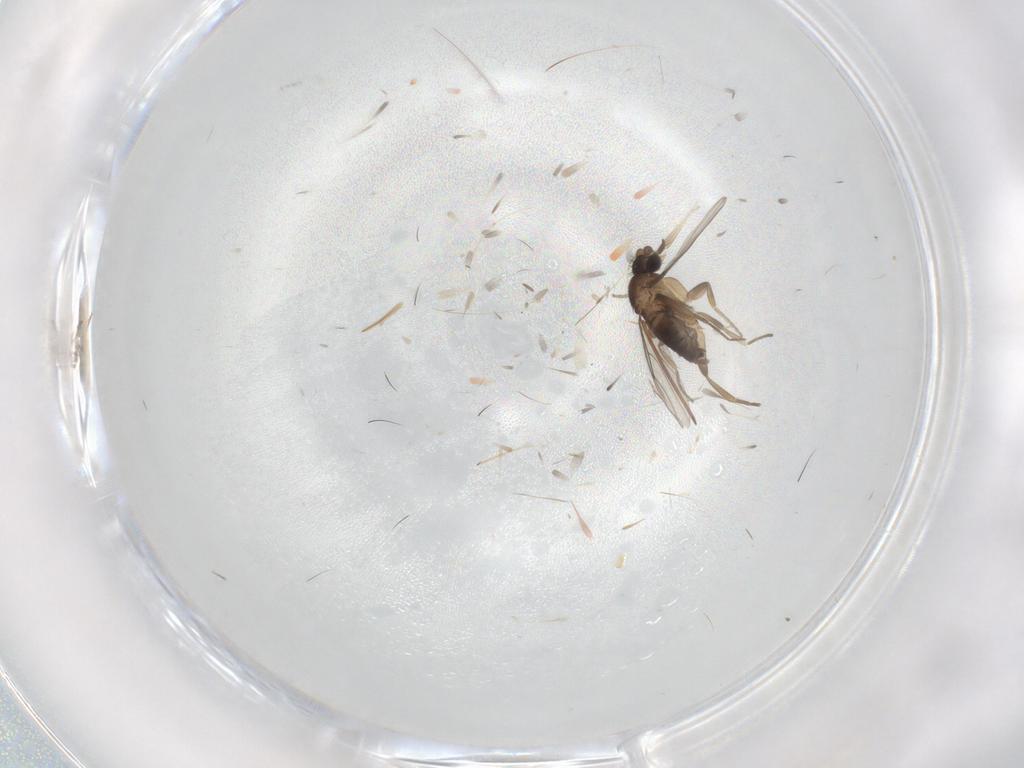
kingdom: Animalia
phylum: Arthropoda
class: Insecta
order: Diptera
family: Phoridae
